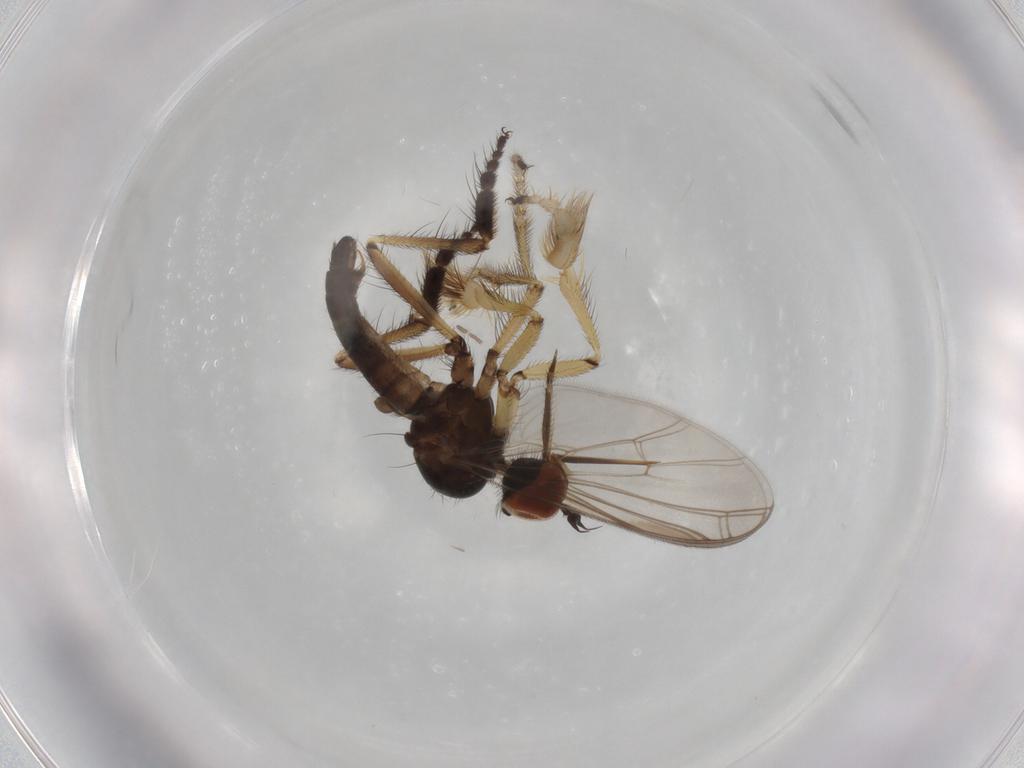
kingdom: Animalia
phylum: Arthropoda
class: Insecta
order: Diptera
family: Empididae
